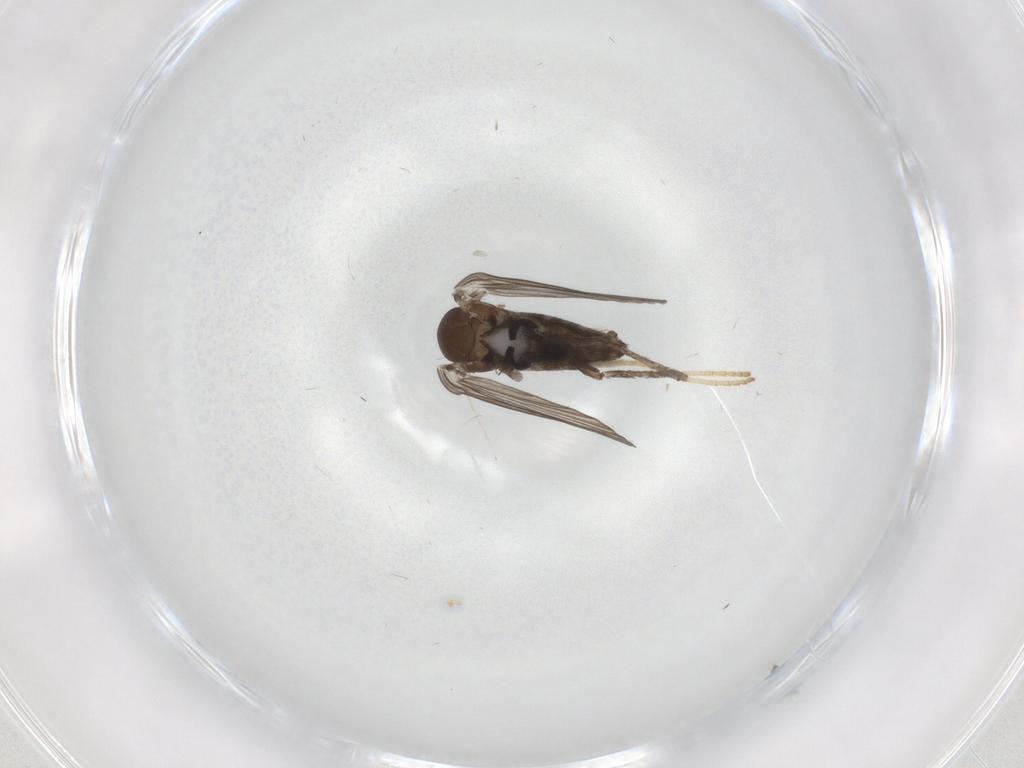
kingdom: Animalia
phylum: Arthropoda
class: Insecta
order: Diptera
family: Psychodidae
